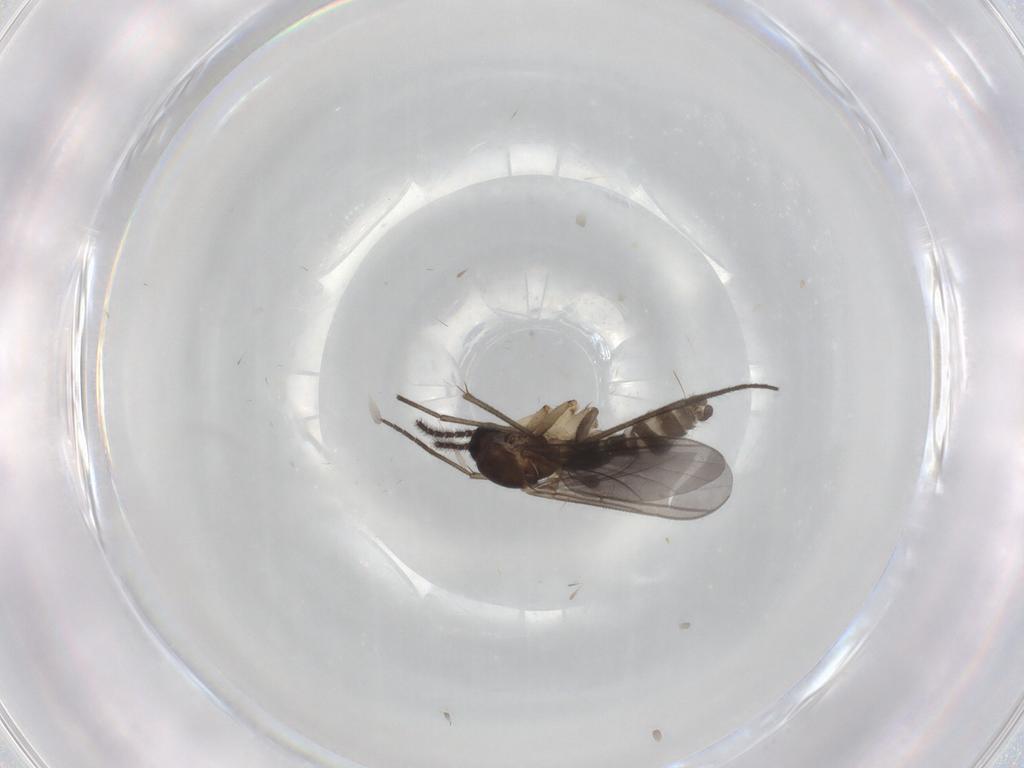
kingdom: Animalia
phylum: Arthropoda
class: Insecta
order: Diptera
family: Sciaridae
